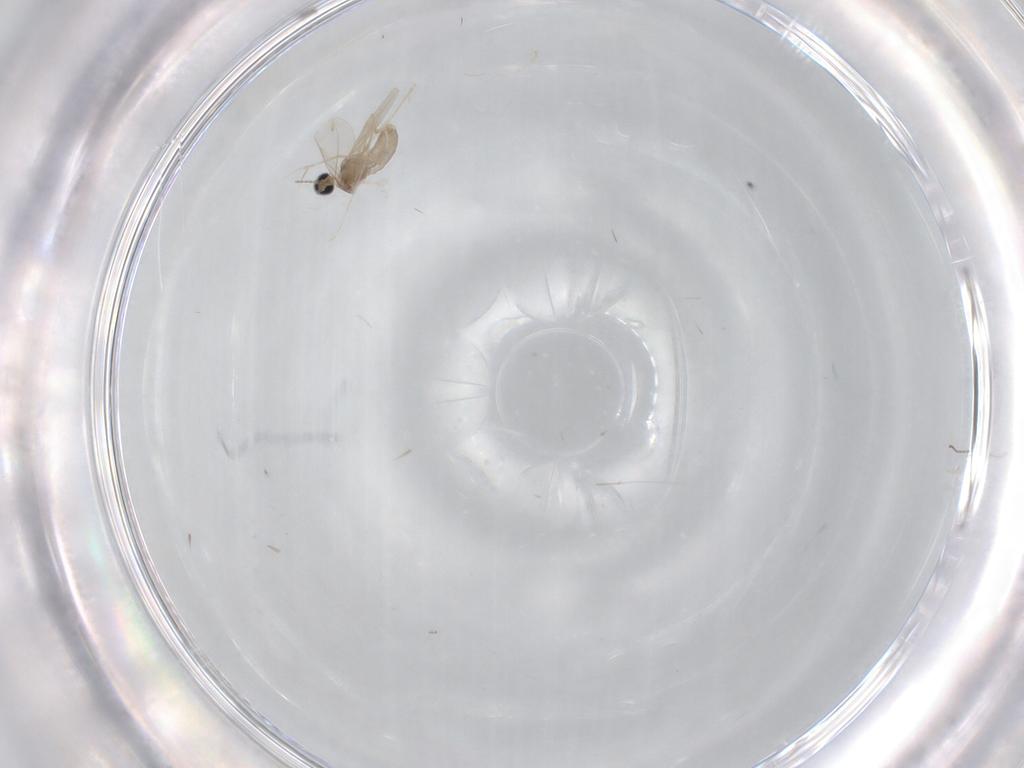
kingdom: Animalia
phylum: Arthropoda
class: Insecta
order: Diptera
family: Cecidomyiidae
